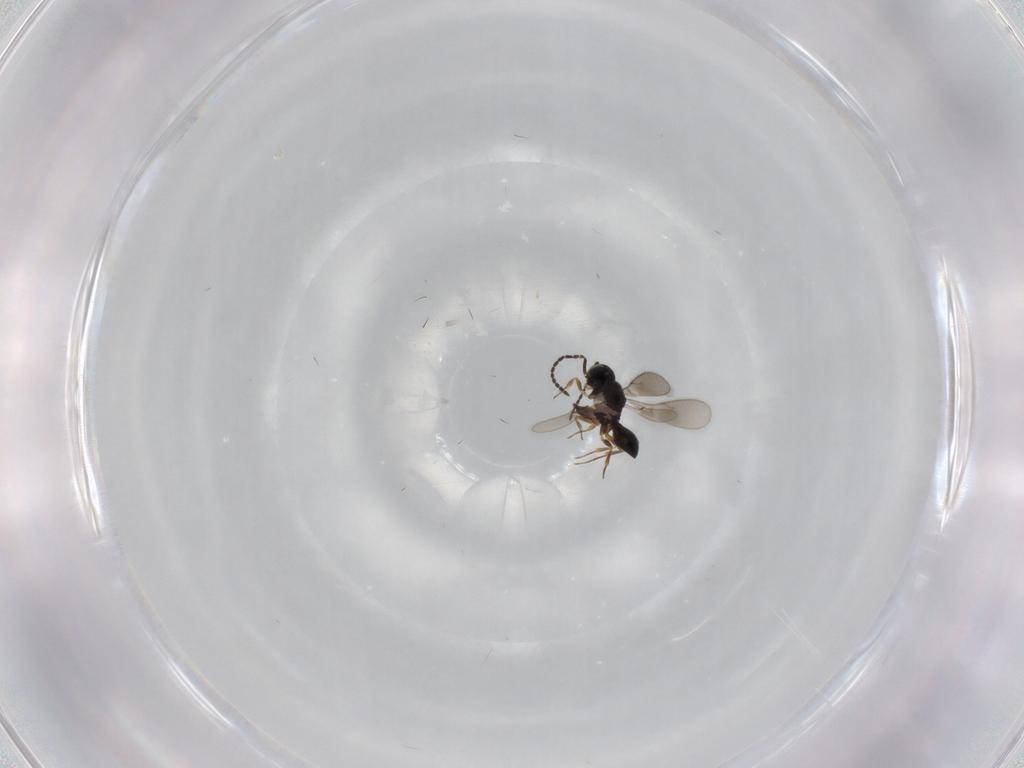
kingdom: Animalia
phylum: Arthropoda
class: Insecta
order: Hymenoptera
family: Scelionidae
